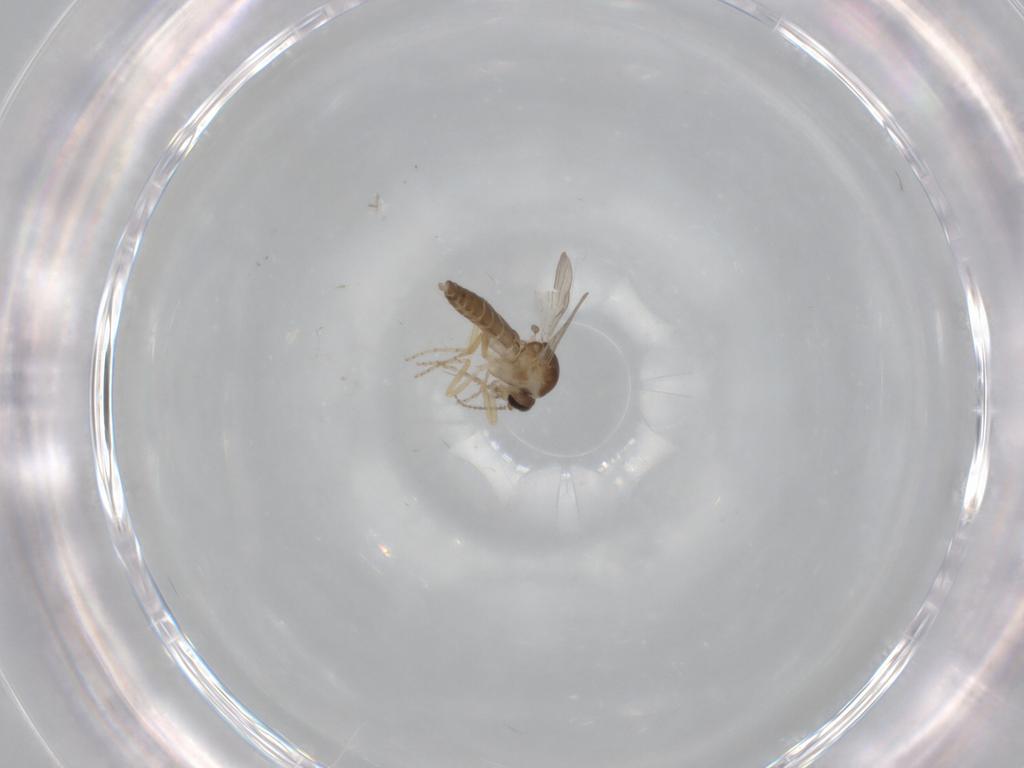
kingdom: Animalia
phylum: Arthropoda
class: Insecta
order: Diptera
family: Ceratopogonidae
